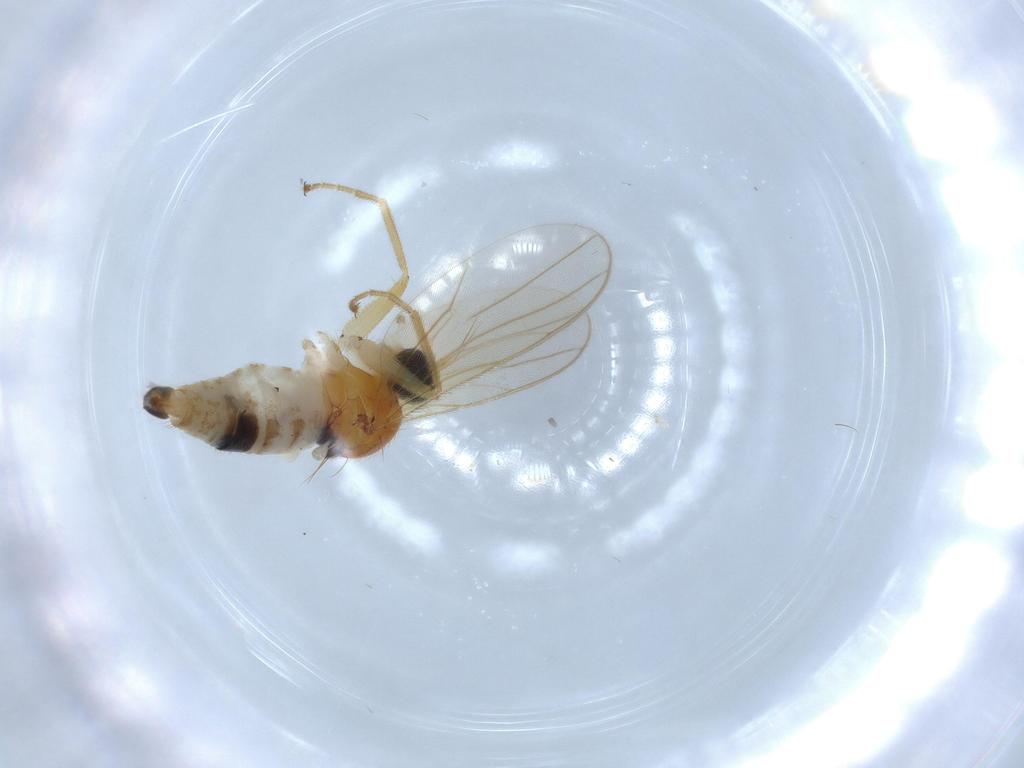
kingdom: Animalia
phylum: Arthropoda
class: Insecta
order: Diptera
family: Hybotidae
